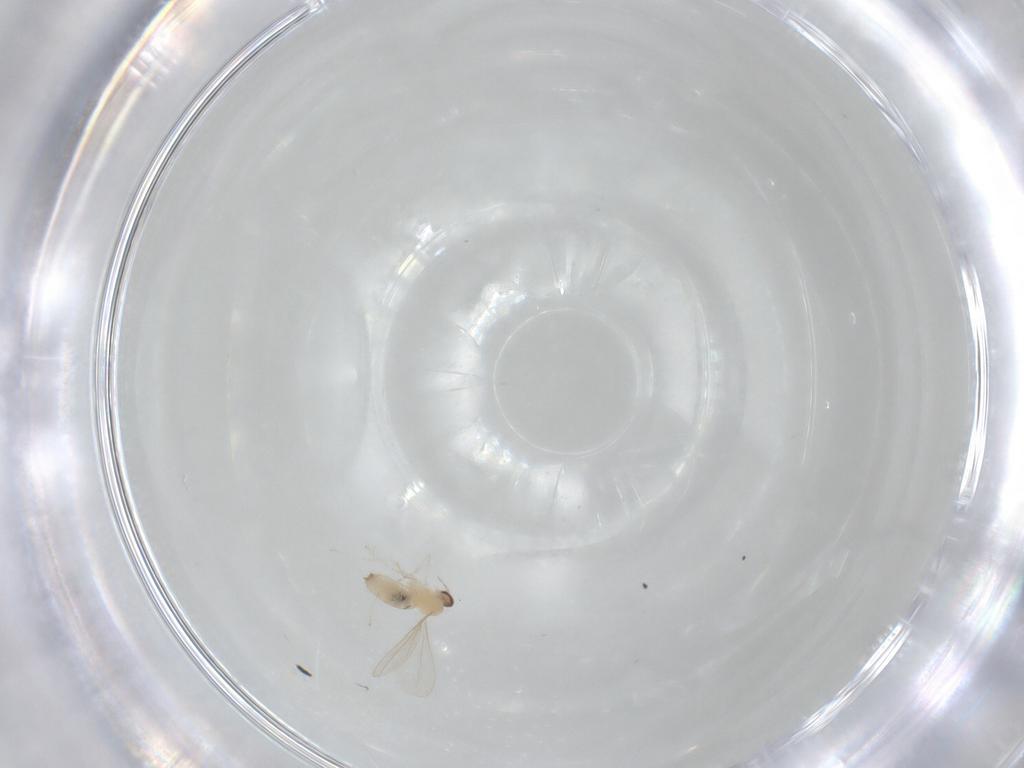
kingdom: Animalia
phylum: Arthropoda
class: Insecta
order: Diptera
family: Cecidomyiidae
